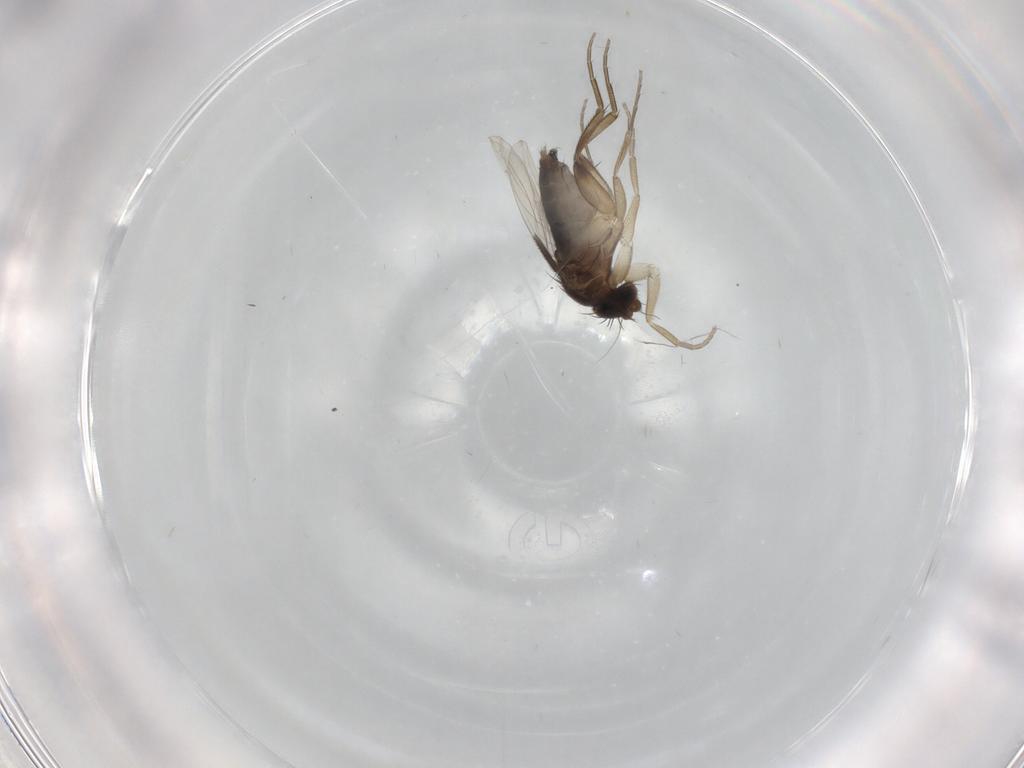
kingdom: Animalia
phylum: Arthropoda
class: Insecta
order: Diptera
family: Phoridae
